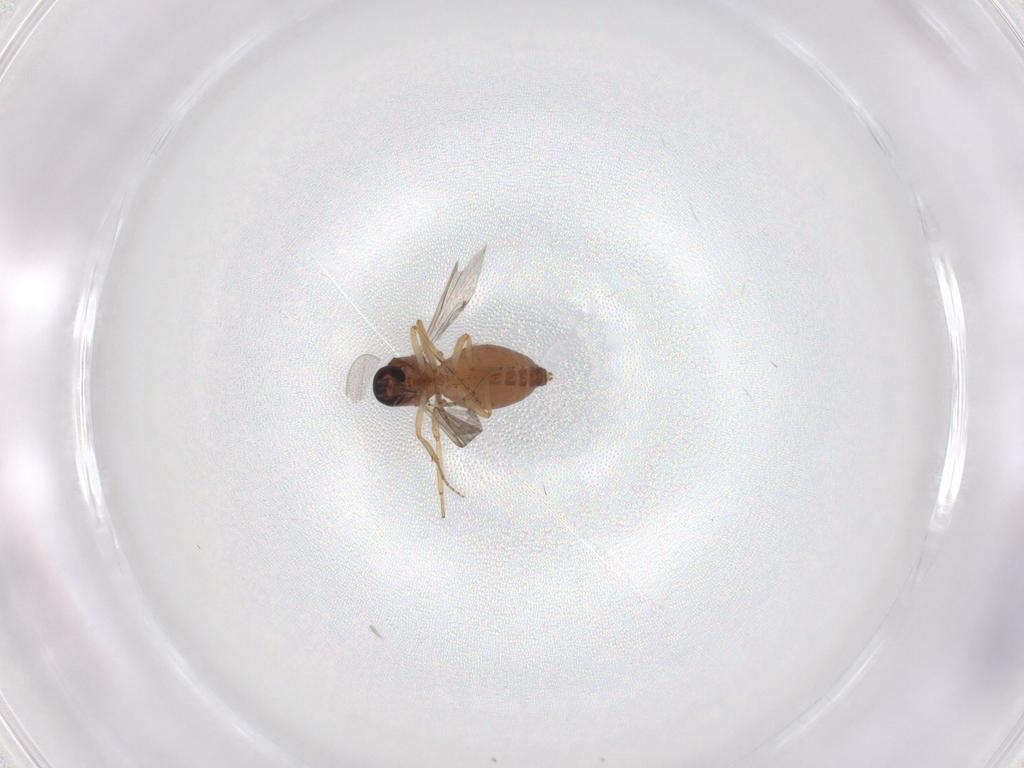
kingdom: Animalia
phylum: Arthropoda
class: Insecta
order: Diptera
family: Ceratopogonidae
